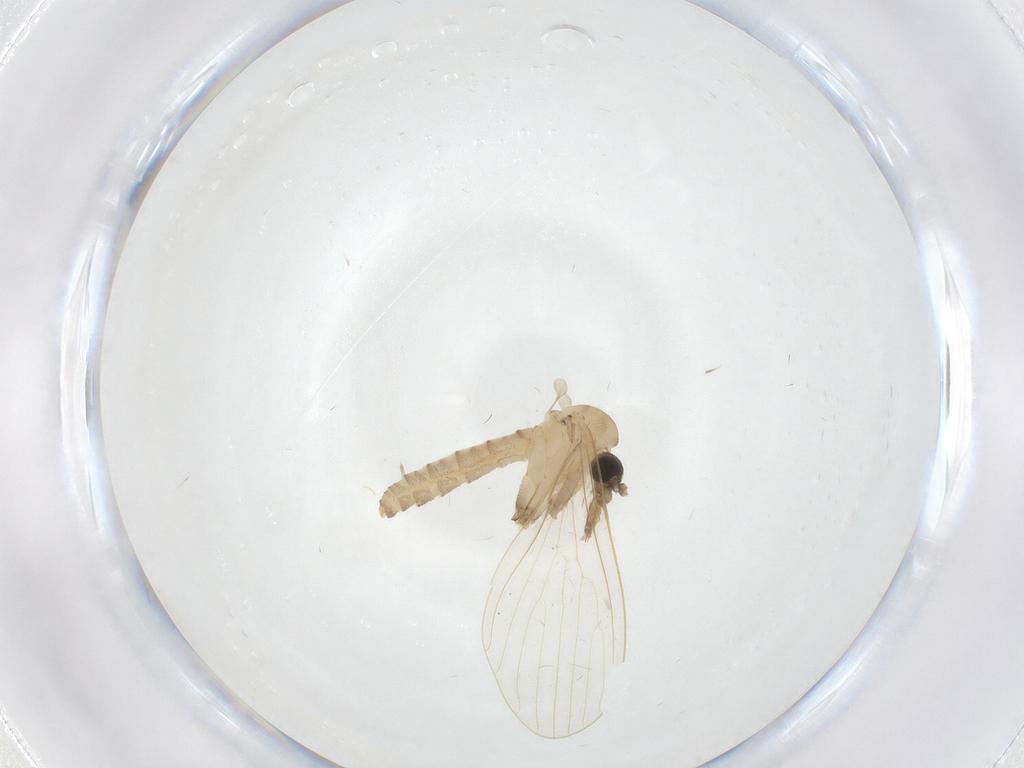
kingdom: Animalia
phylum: Arthropoda
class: Insecta
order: Diptera
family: Psychodidae
